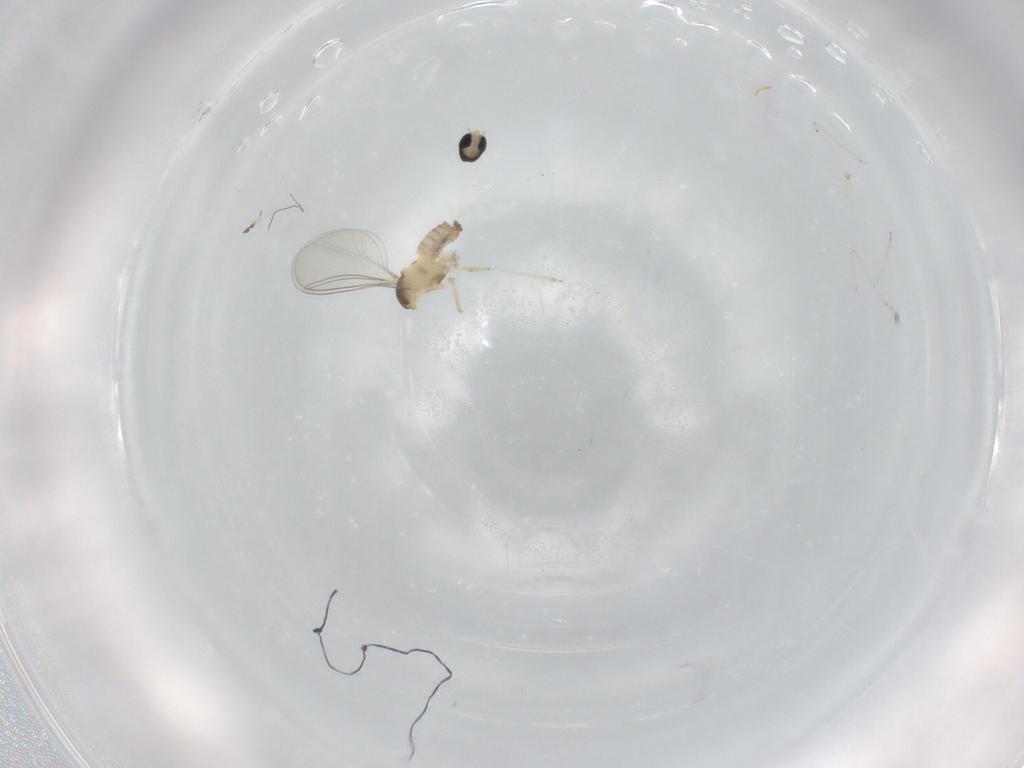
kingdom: Animalia
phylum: Arthropoda
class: Insecta
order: Diptera
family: Cecidomyiidae
